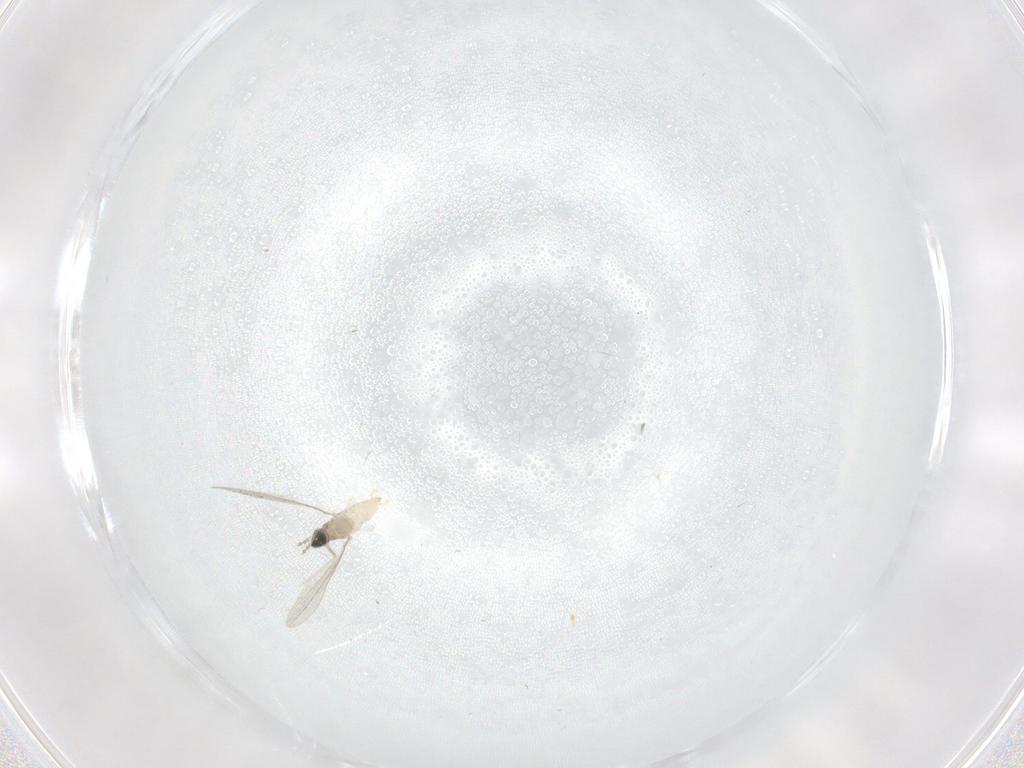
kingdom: Animalia
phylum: Arthropoda
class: Insecta
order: Diptera
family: Cecidomyiidae
